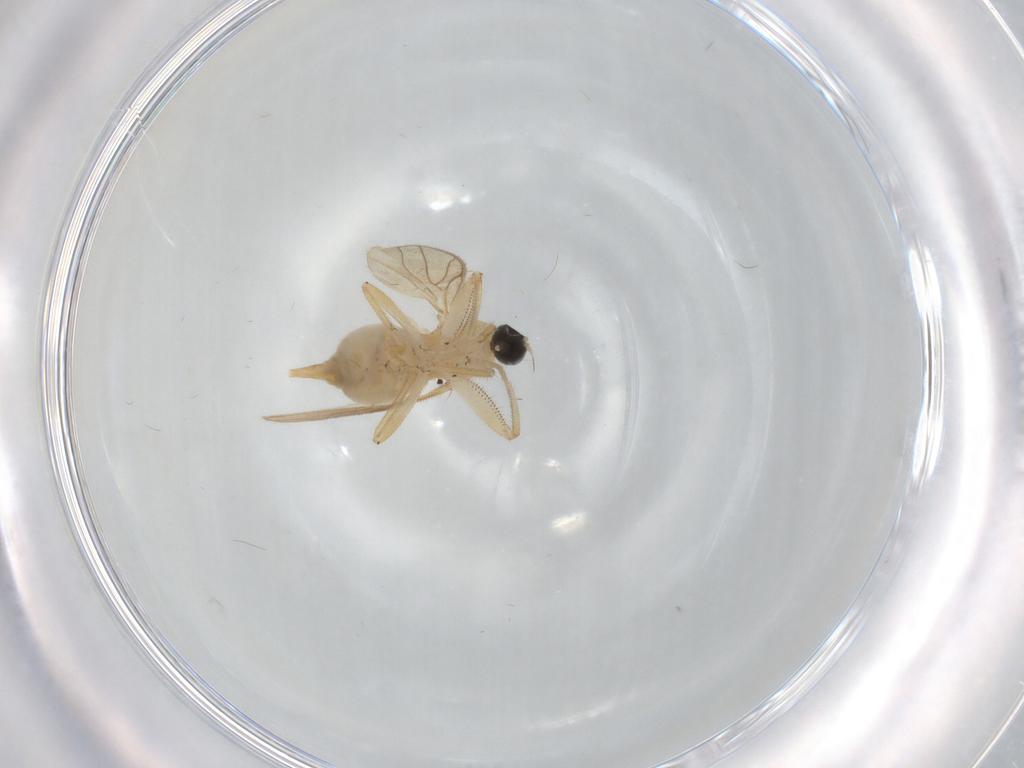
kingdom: Animalia
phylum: Arthropoda
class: Insecta
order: Diptera
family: Hybotidae
